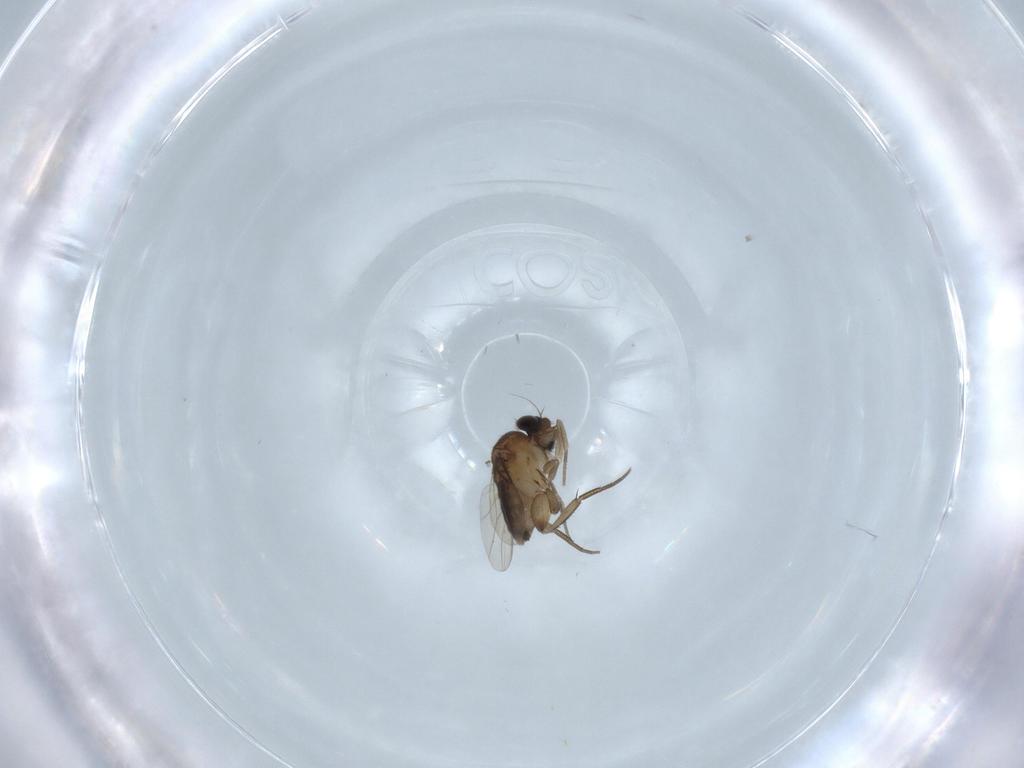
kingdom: Animalia
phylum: Arthropoda
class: Insecta
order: Diptera
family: Phoridae
